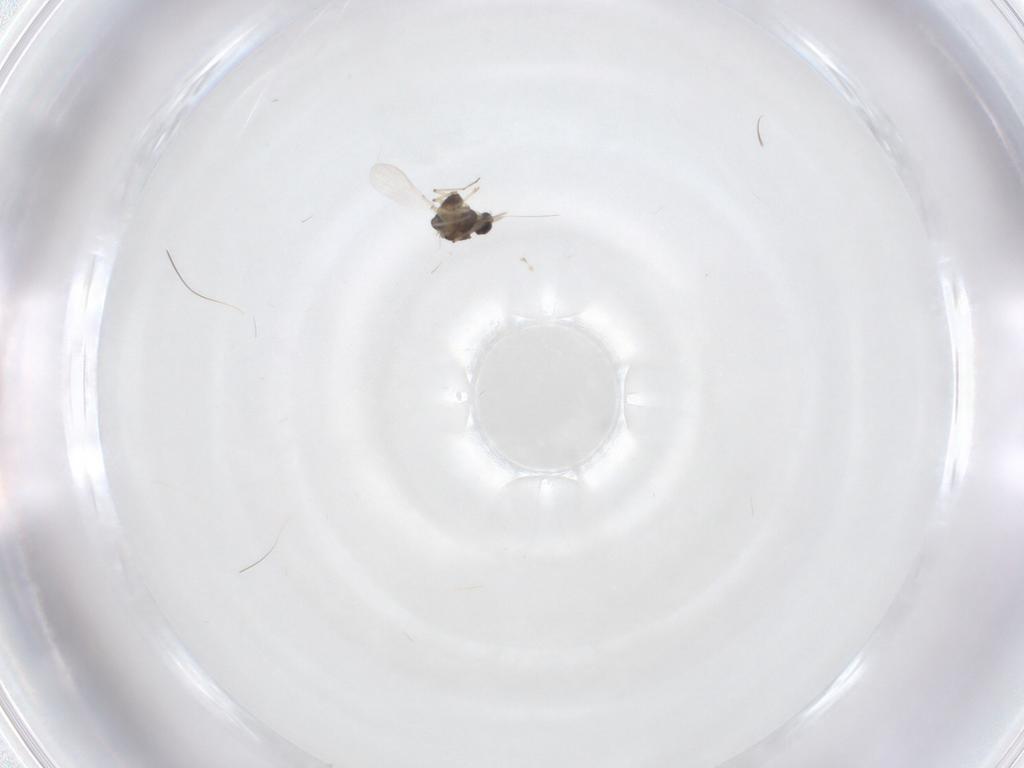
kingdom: Animalia
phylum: Arthropoda
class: Insecta
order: Diptera
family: Chironomidae
